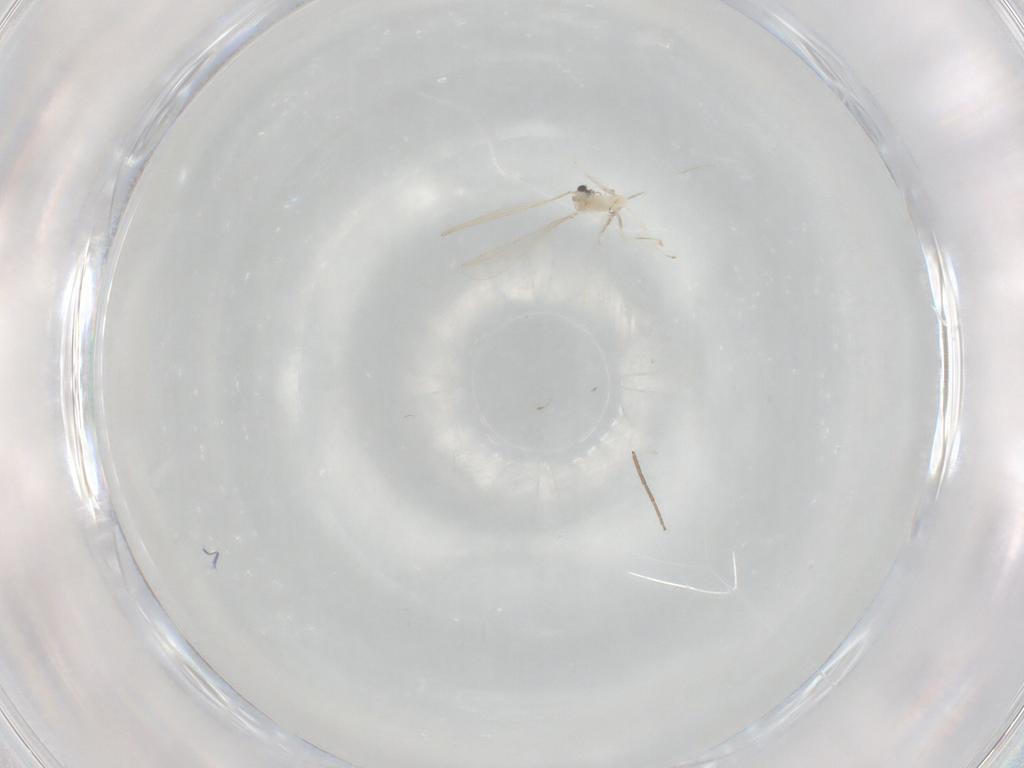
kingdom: Animalia
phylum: Arthropoda
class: Insecta
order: Diptera
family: Cecidomyiidae
